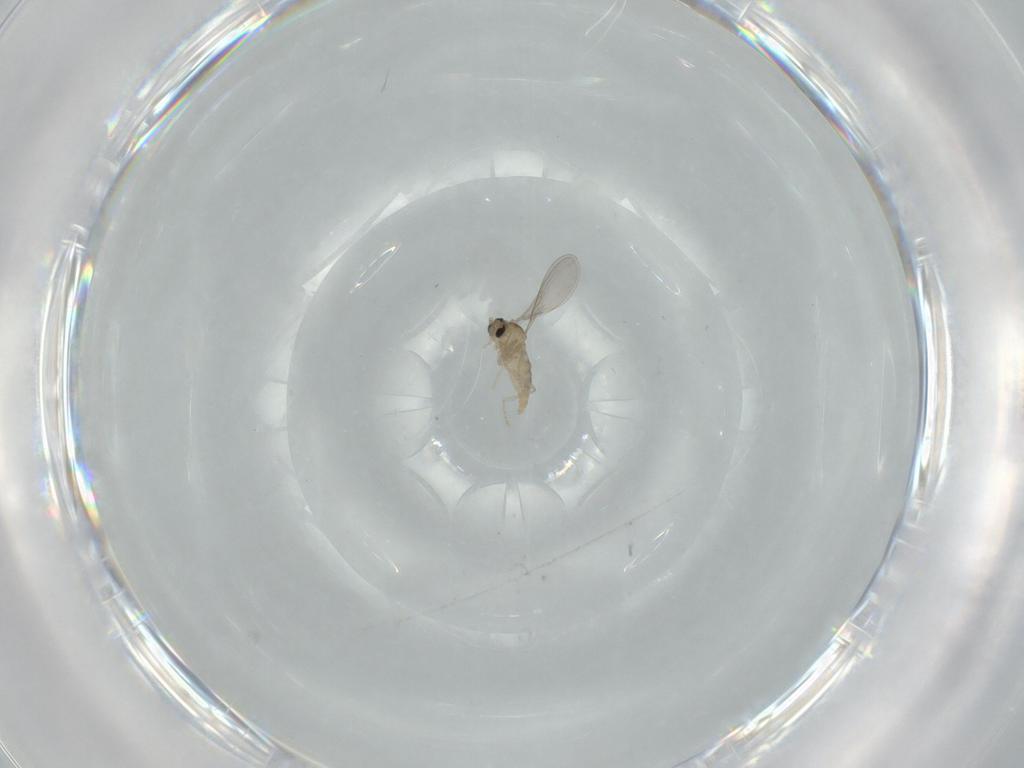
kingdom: Animalia
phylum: Arthropoda
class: Insecta
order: Diptera
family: Cecidomyiidae
